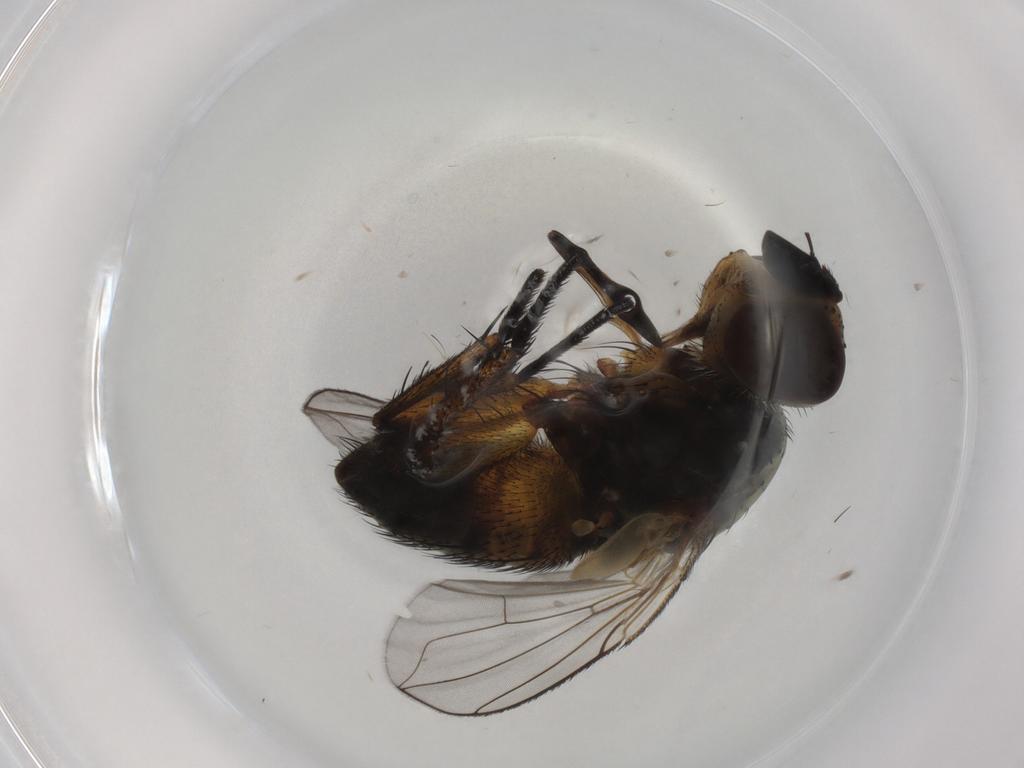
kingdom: Animalia
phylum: Arthropoda
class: Insecta
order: Diptera
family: Tachinidae
